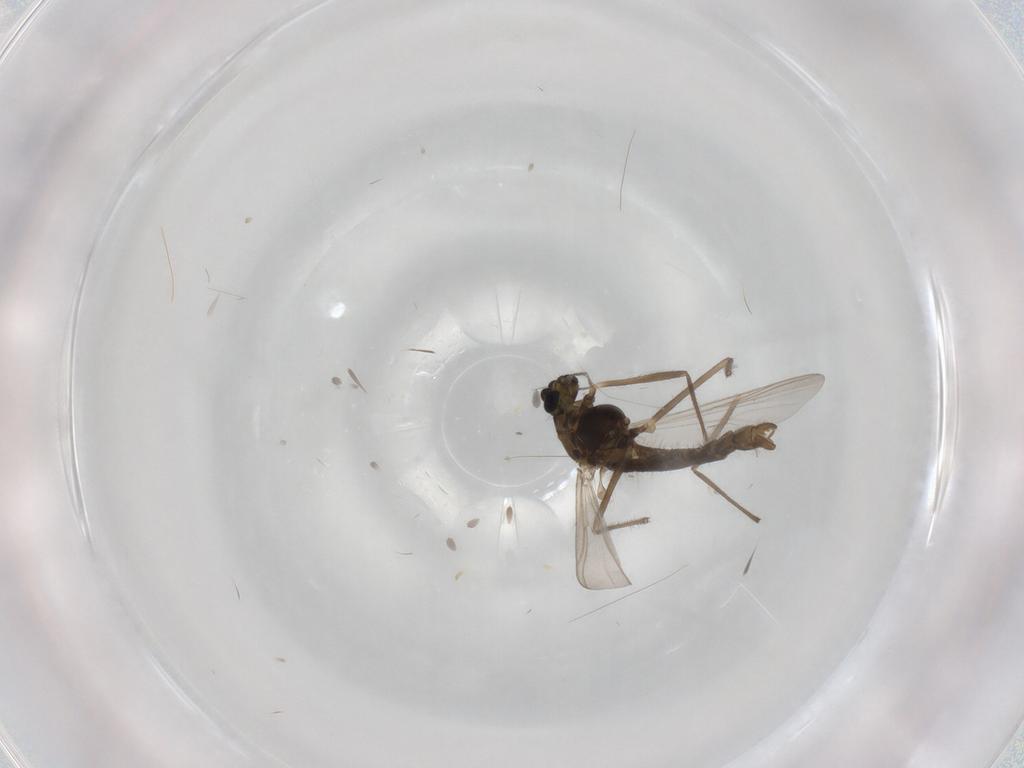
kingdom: Animalia
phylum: Arthropoda
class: Insecta
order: Diptera
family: Chironomidae
